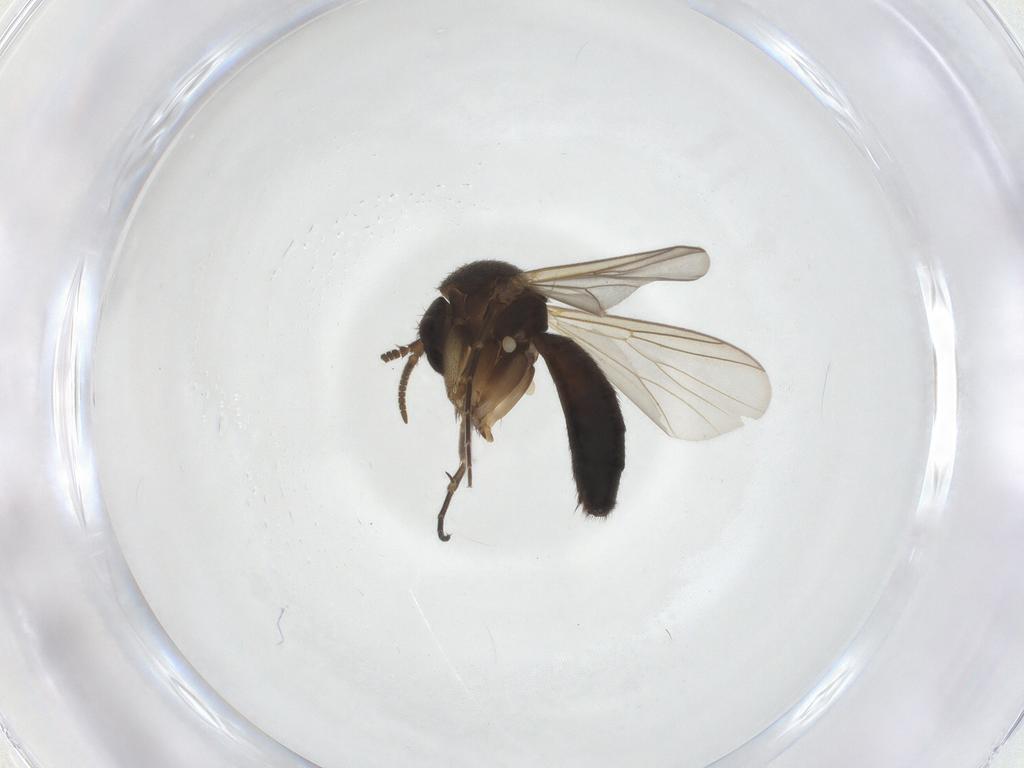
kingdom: Animalia
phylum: Arthropoda
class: Insecta
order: Diptera
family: Mycetophilidae
